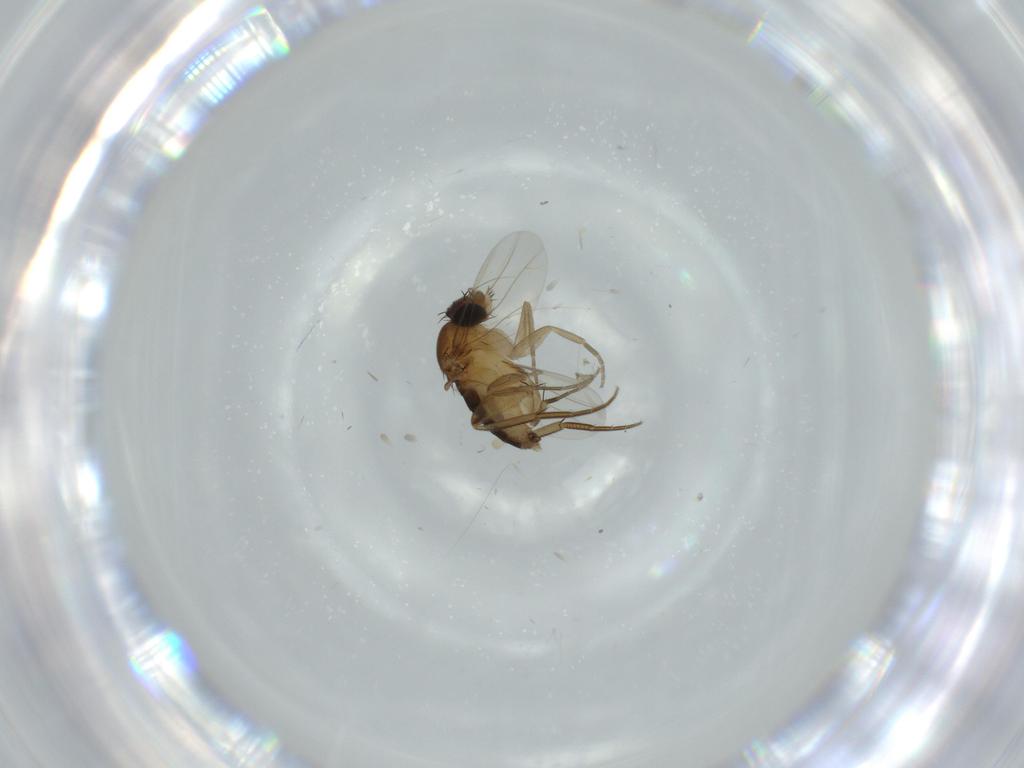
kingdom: Animalia
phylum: Arthropoda
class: Insecta
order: Diptera
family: Phoridae
